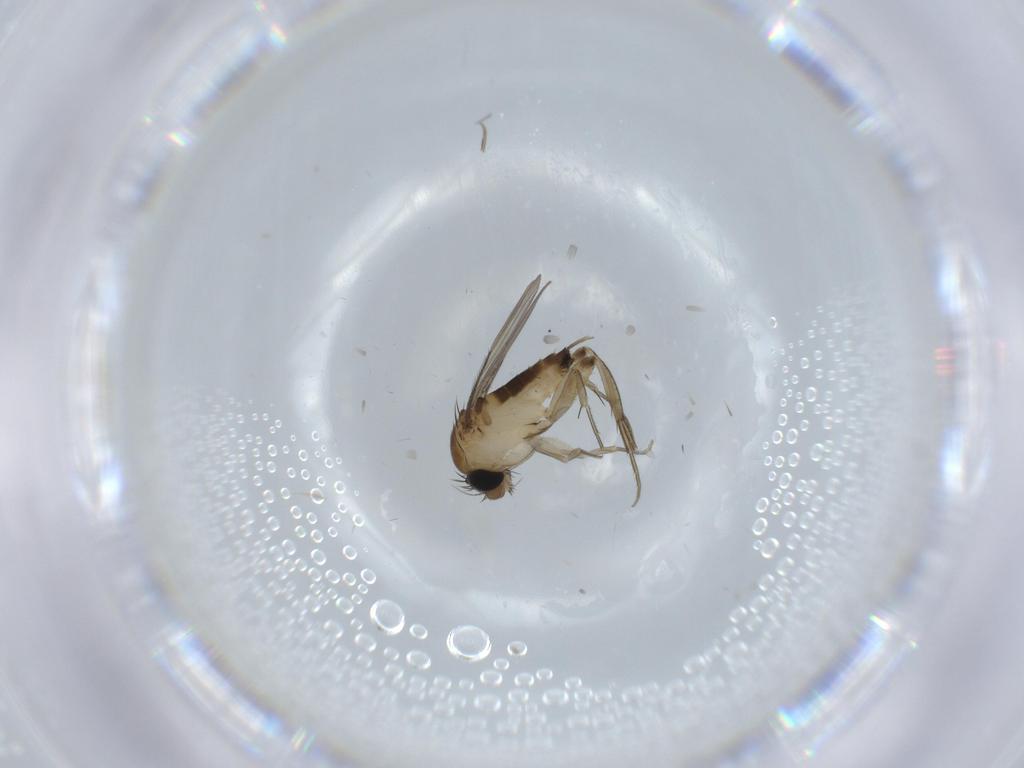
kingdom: Animalia
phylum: Arthropoda
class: Insecta
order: Diptera
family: Phoridae
